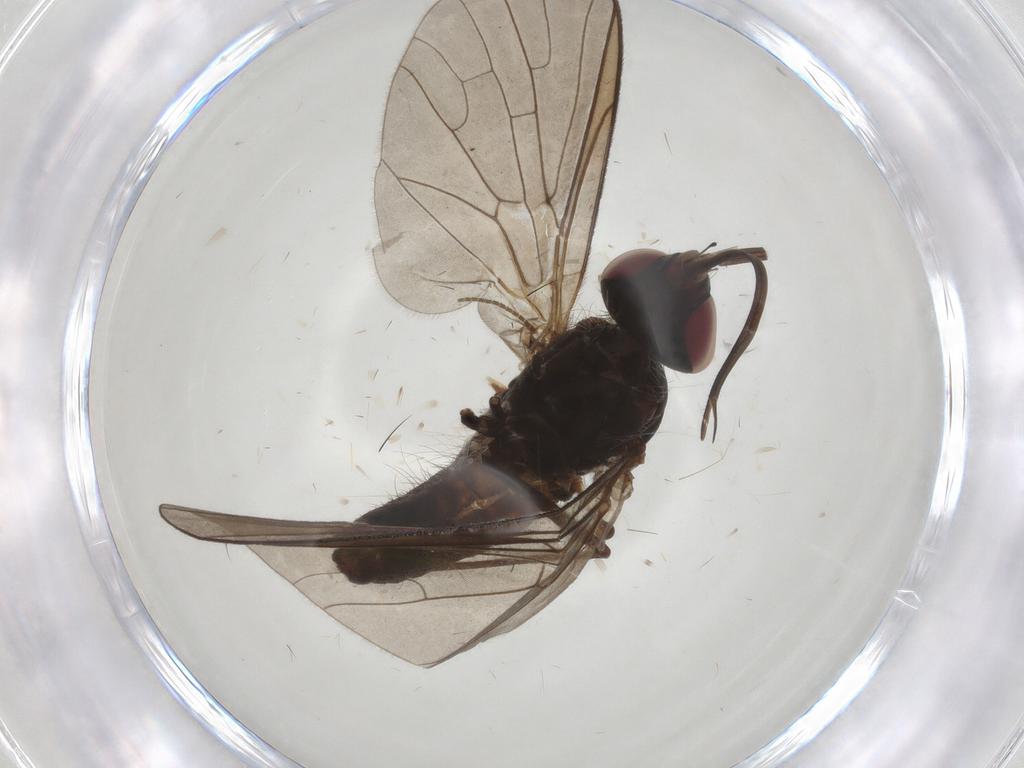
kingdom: Animalia
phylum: Arthropoda
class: Insecta
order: Diptera
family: Bombyliidae
